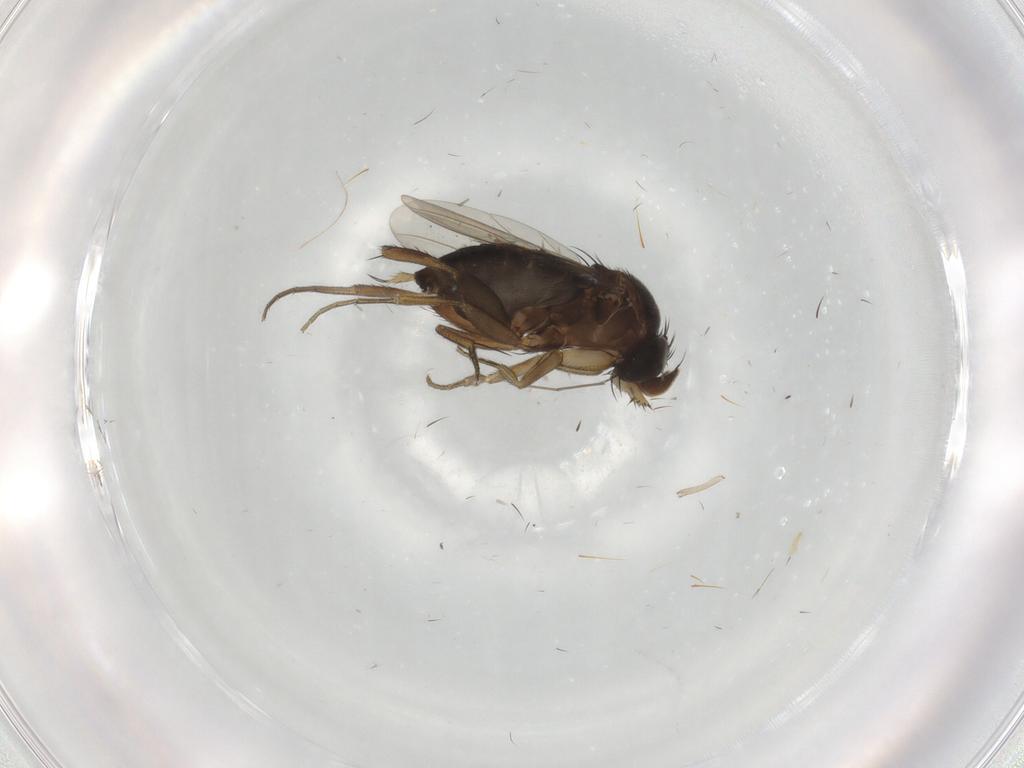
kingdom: Animalia
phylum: Arthropoda
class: Insecta
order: Diptera
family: Phoridae
